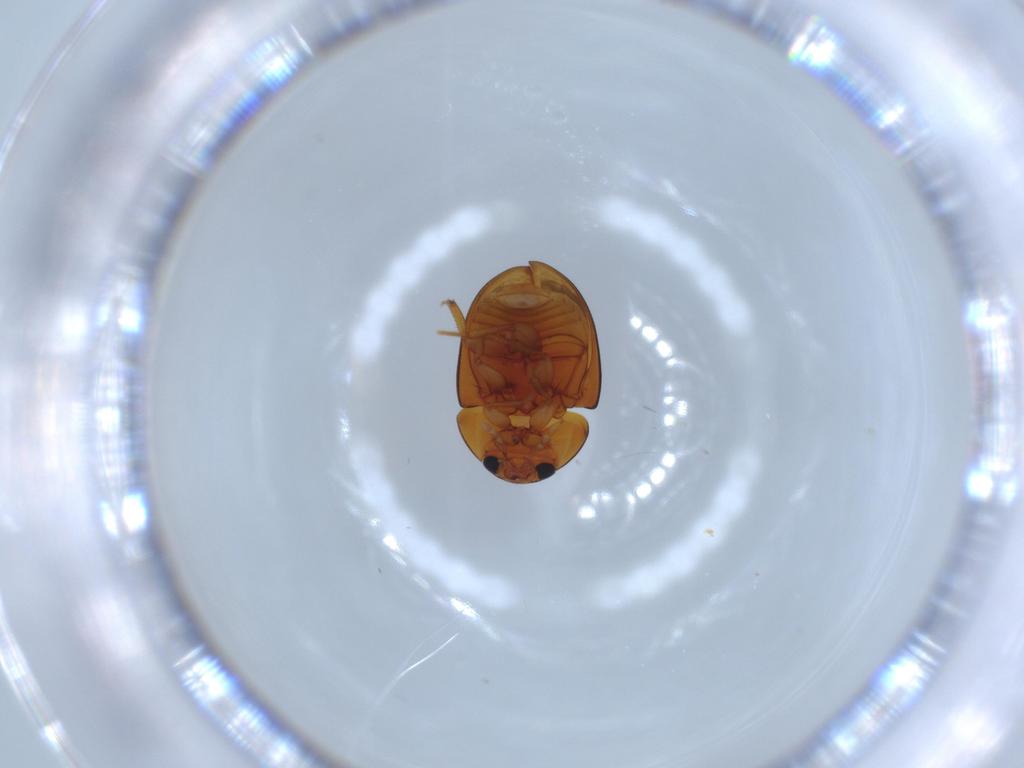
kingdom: Animalia
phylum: Arthropoda
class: Insecta
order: Coleoptera
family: Phalacridae
